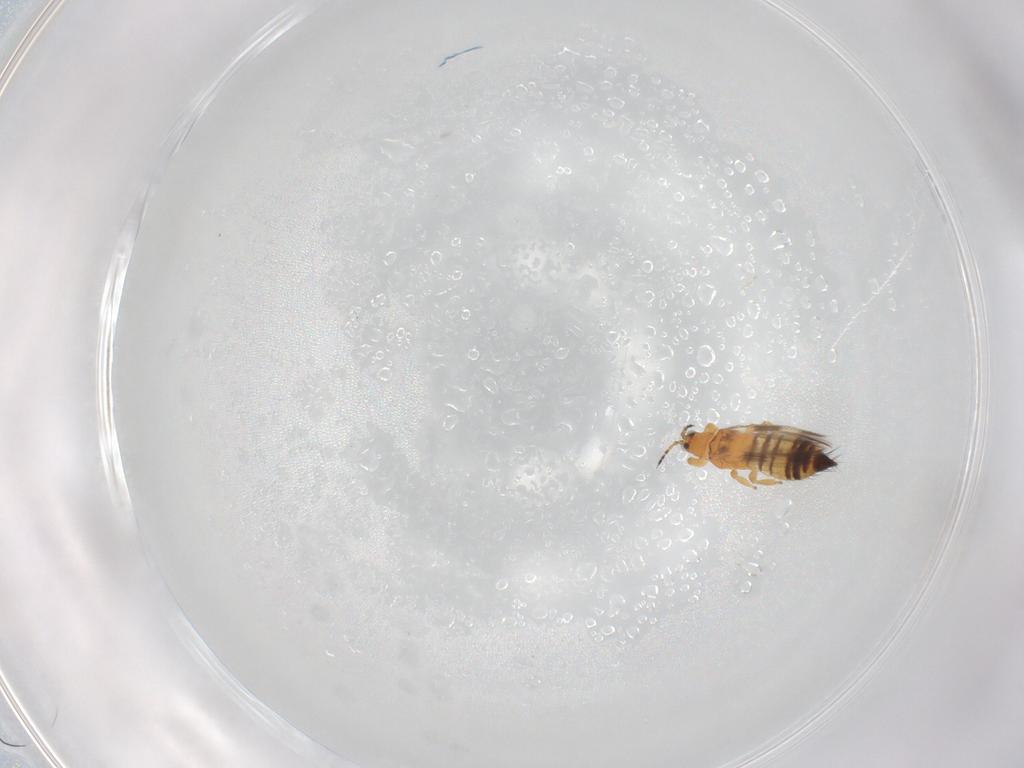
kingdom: Animalia
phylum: Arthropoda
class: Insecta
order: Thysanoptera
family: Thripidae
